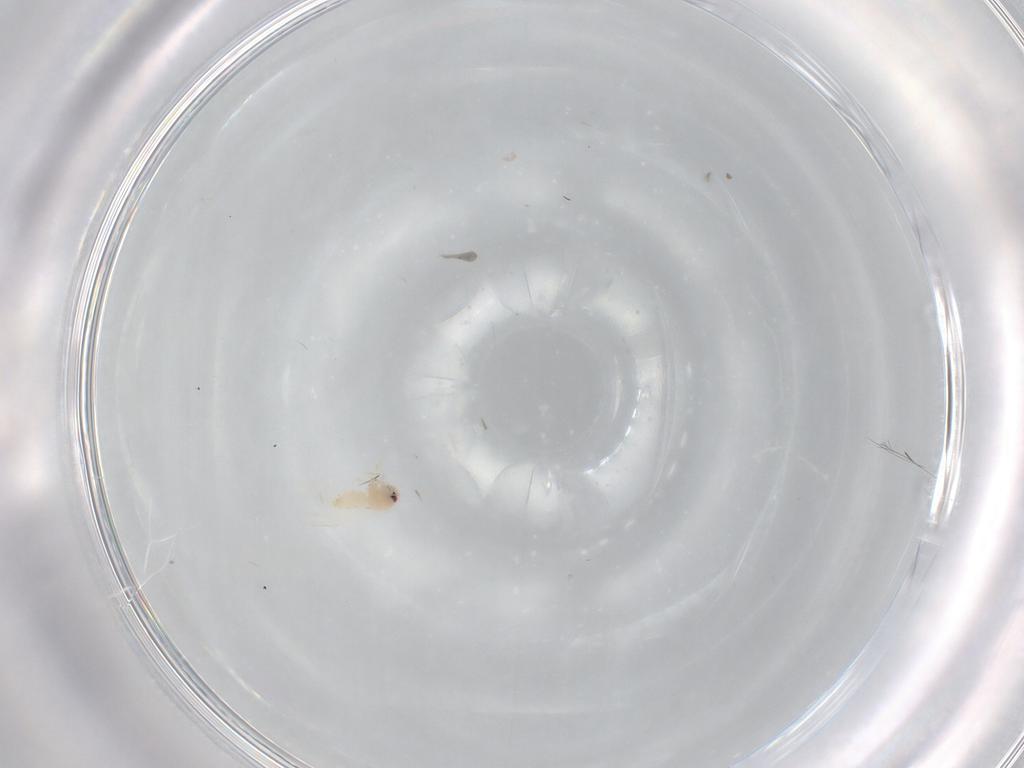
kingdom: Animalia
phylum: Arthropoda
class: Insecta
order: Hemiptera
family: Aleyrodidae
